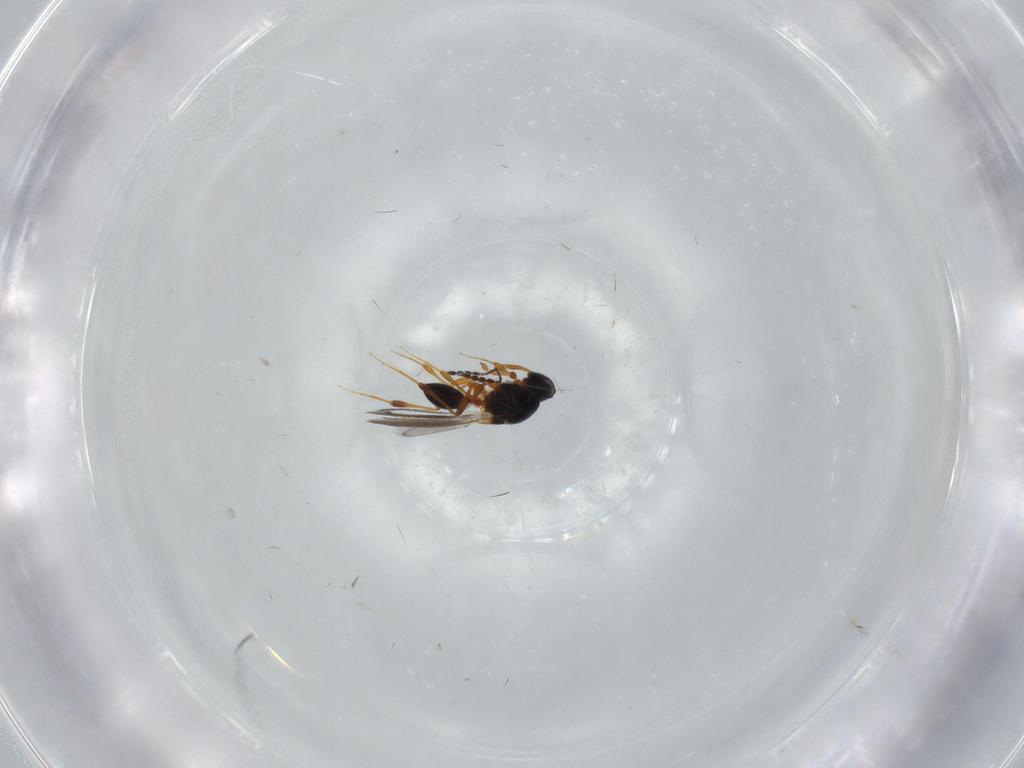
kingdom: Animalia
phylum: Arthropoda
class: Insecta
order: Hymenoptera
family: Platygastridae
